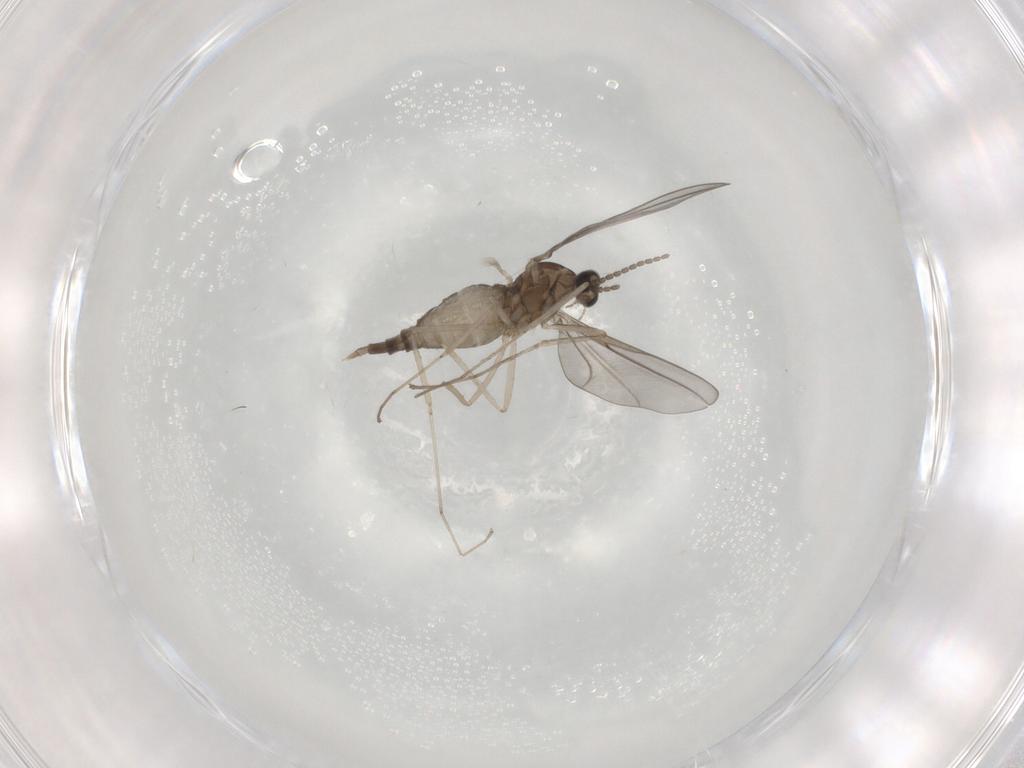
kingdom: Animalia
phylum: Arthropoda
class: Insecta
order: Diptera
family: Cecidomyiidae
